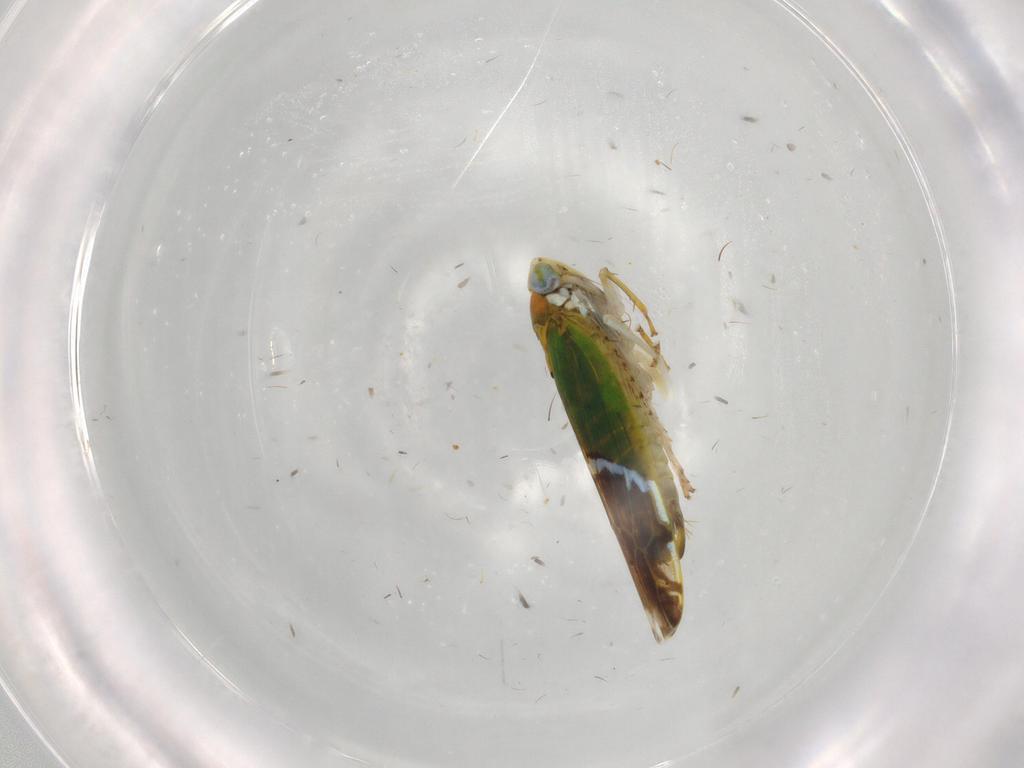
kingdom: Animalia
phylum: Arthropoda
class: Insecta
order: Hemiptera
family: Cicadellidae
